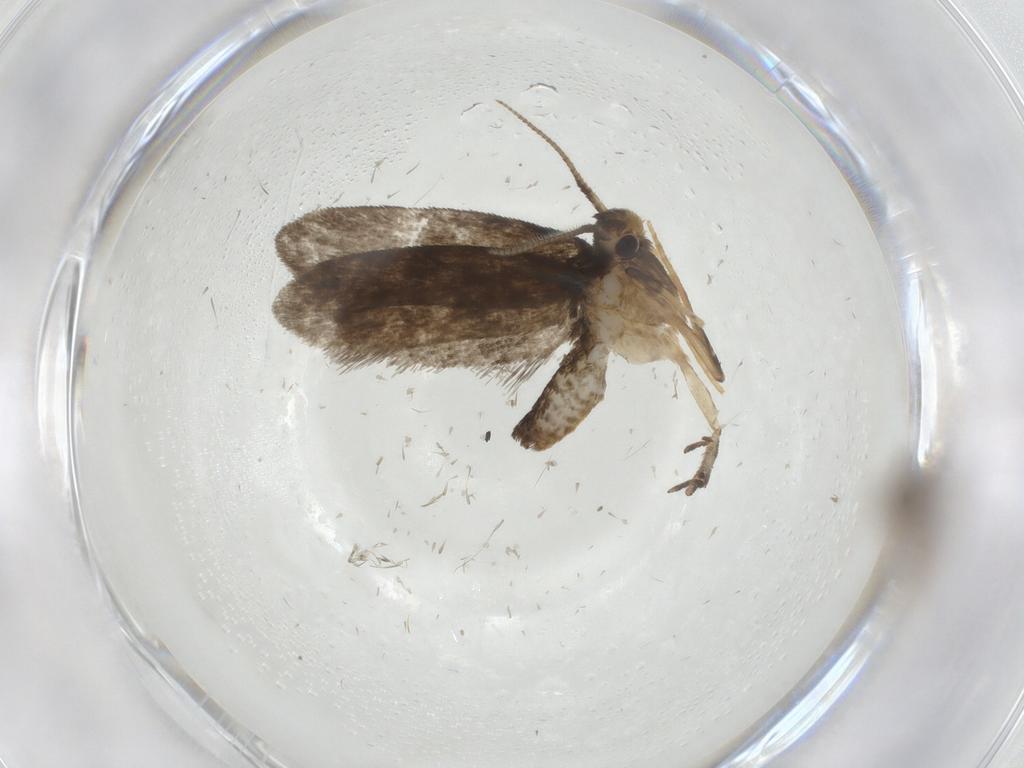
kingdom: Animalia
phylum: Arthropoda
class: Insecta
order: Lepidoptera
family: Psychidae
